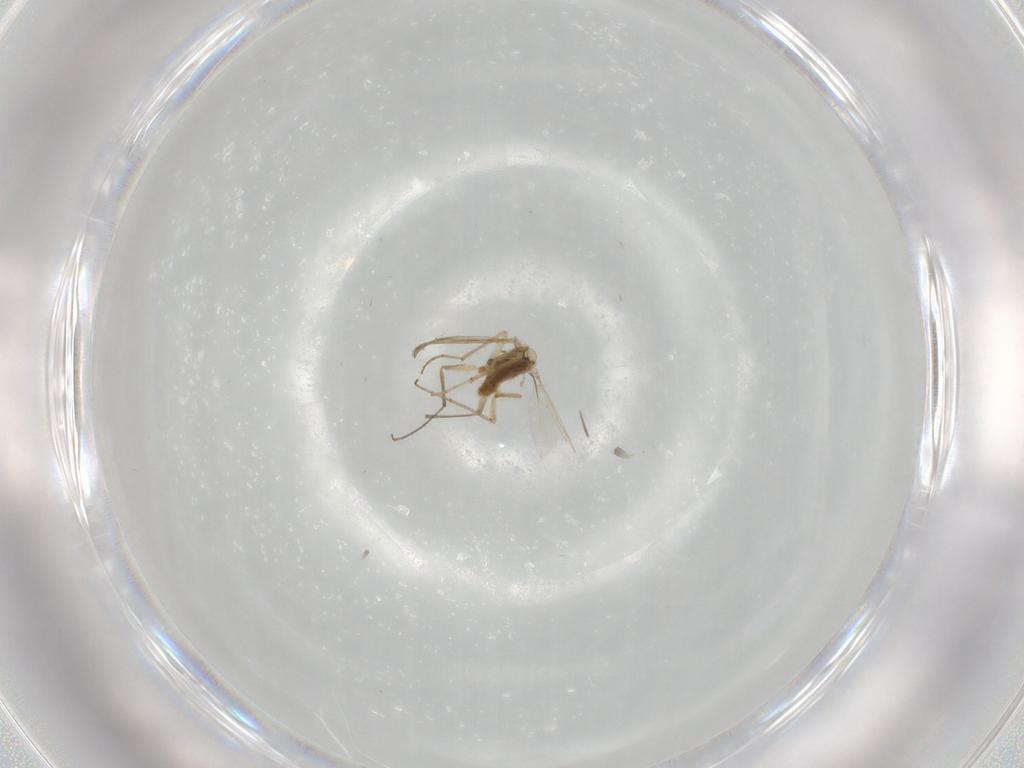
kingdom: Animalia
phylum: Arthropoda
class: Insecta
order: Diptera
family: Chironomidae
